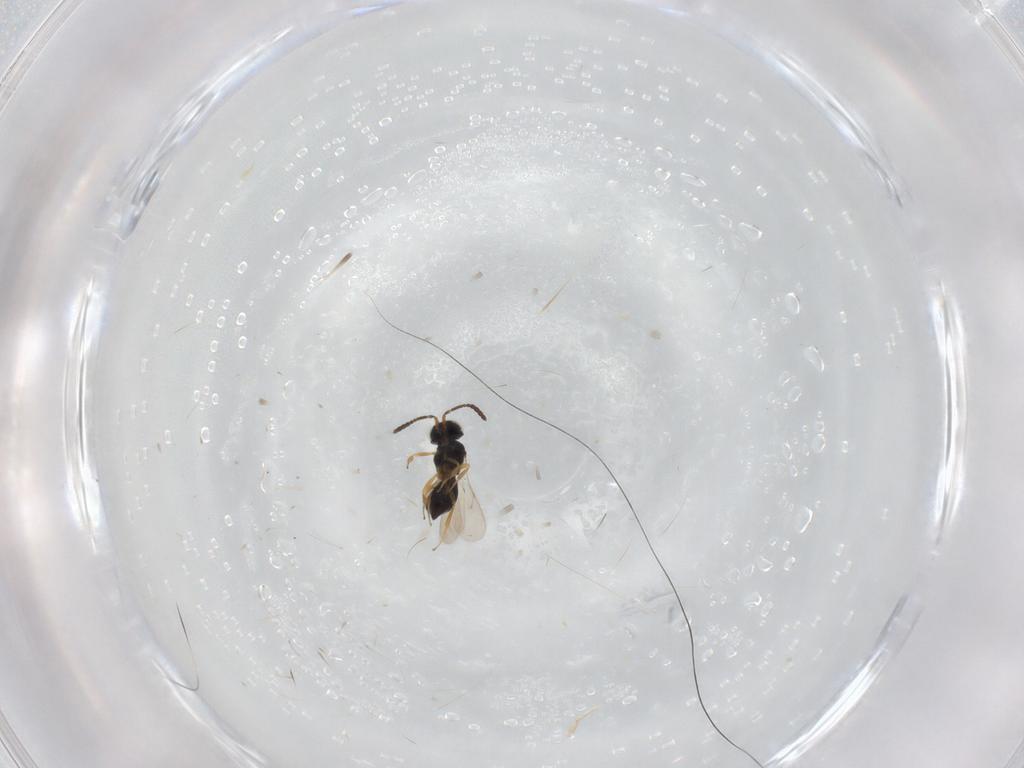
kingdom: Animalia
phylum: Arthropoda
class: Insecta
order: Hymenoptera
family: Scelionidae
